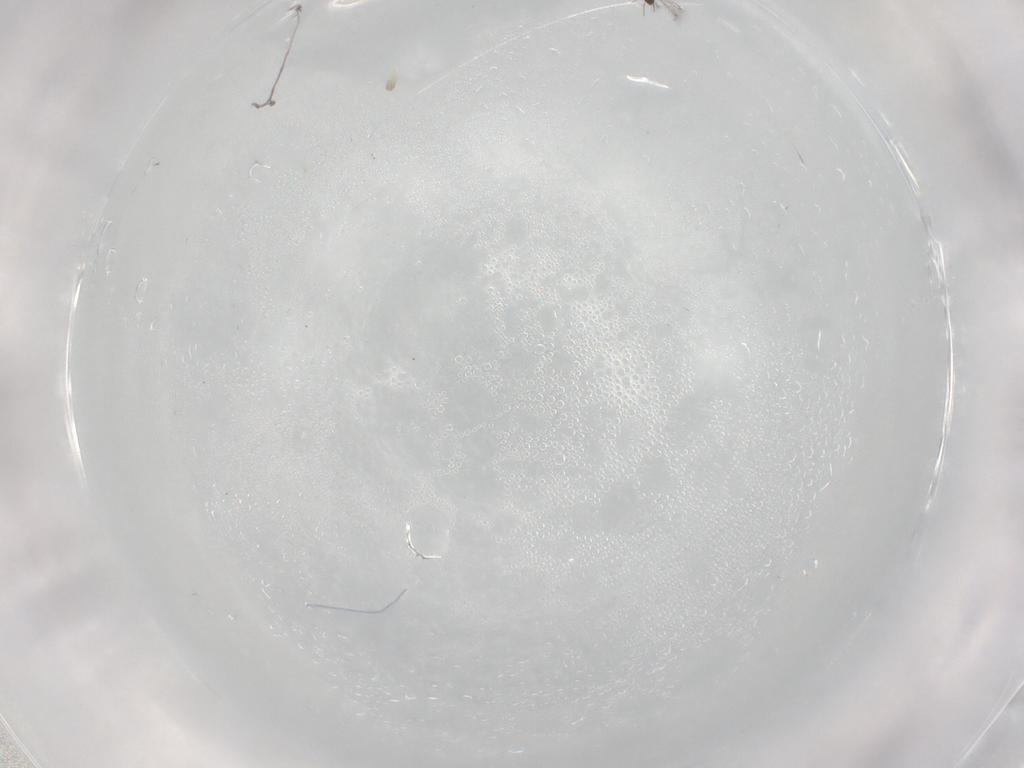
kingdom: Animalia
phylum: Arthropoda
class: Insecta
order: Hymenoptera
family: Mymaridae
